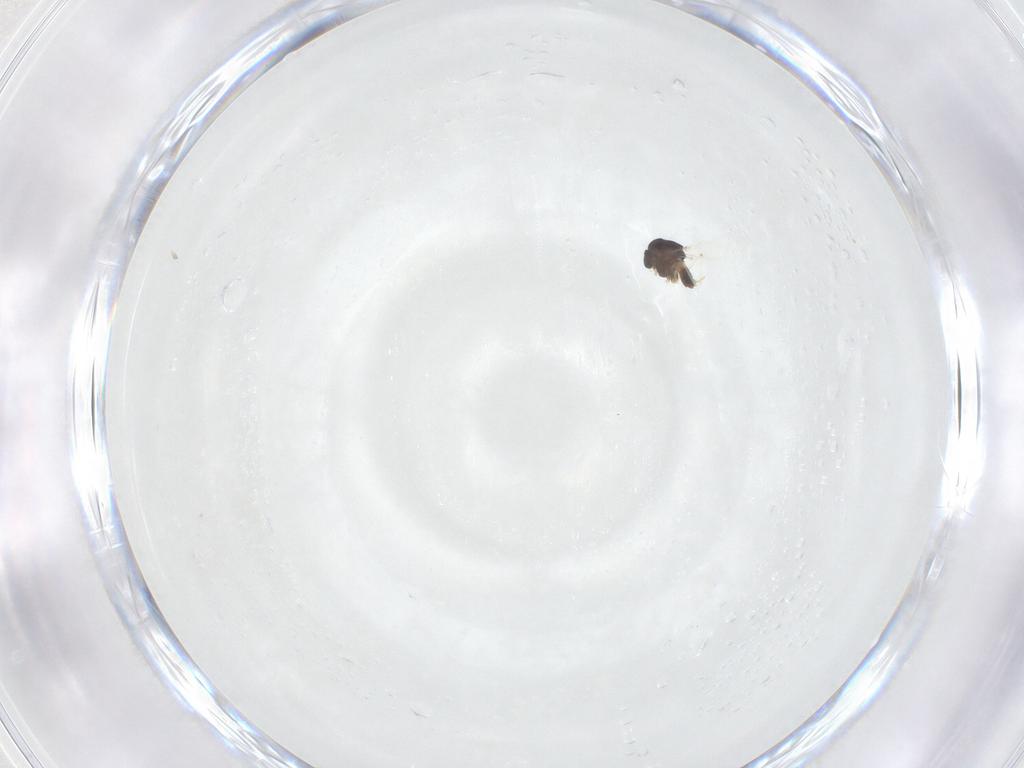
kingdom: Animalia
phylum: Arthropoda
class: Insecta
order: Diptera
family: Chironomidae
